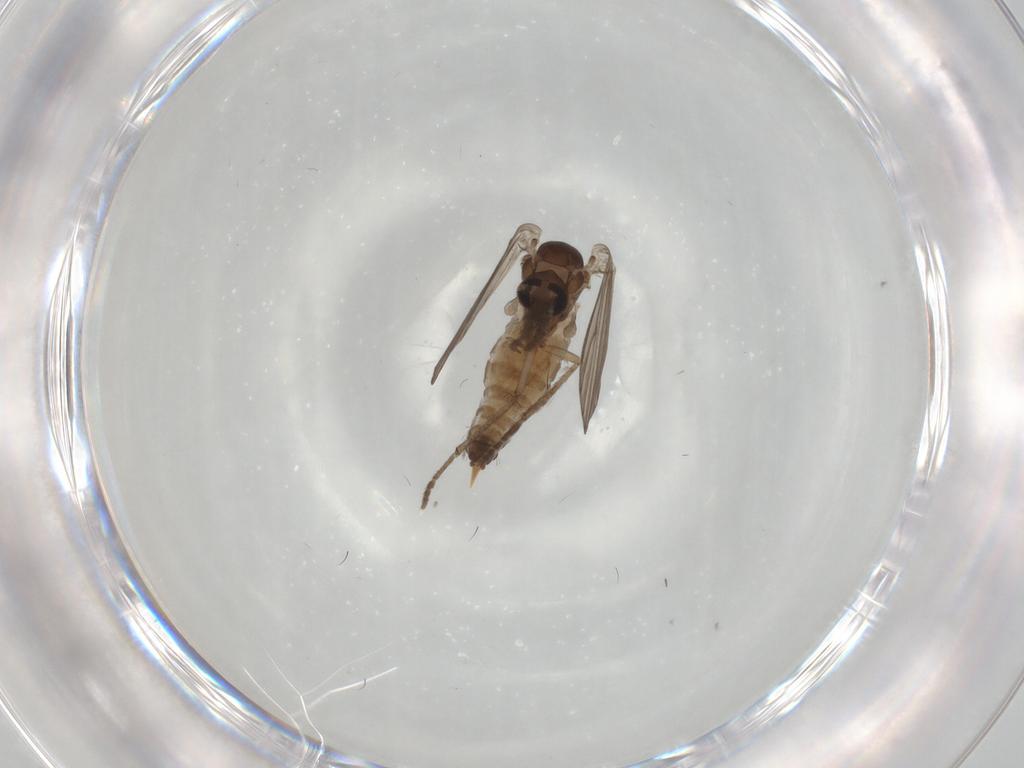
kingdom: Animalia
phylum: Arthropoda
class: Insecta
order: Diptera
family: Psychodidae
